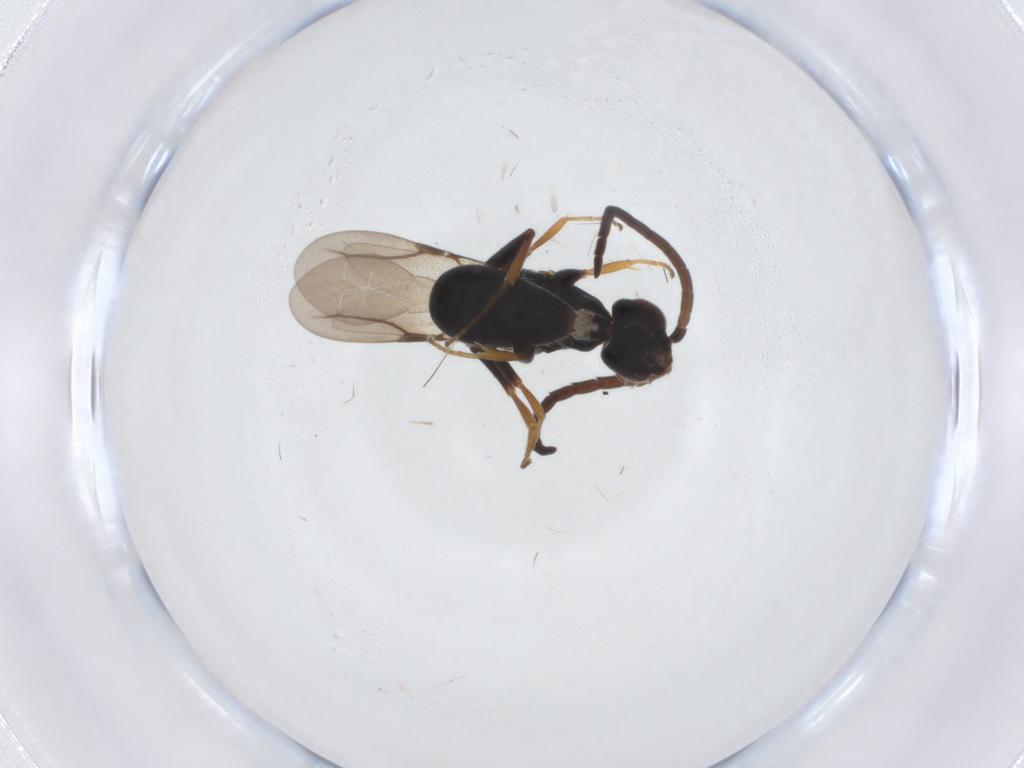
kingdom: Animalia
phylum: Arthropoda
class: Insecta
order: Hymenoptera
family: Bethylidae
